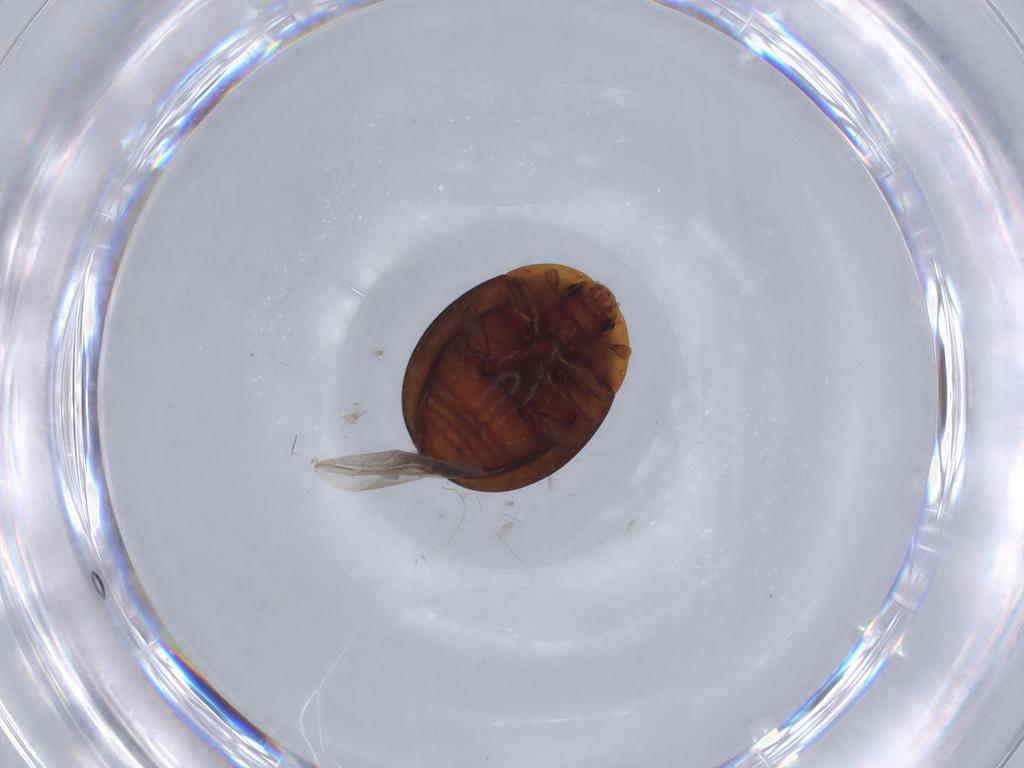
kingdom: Animalia
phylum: Arthropoda
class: Insecta
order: Coleoptera
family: Discolomatidae
